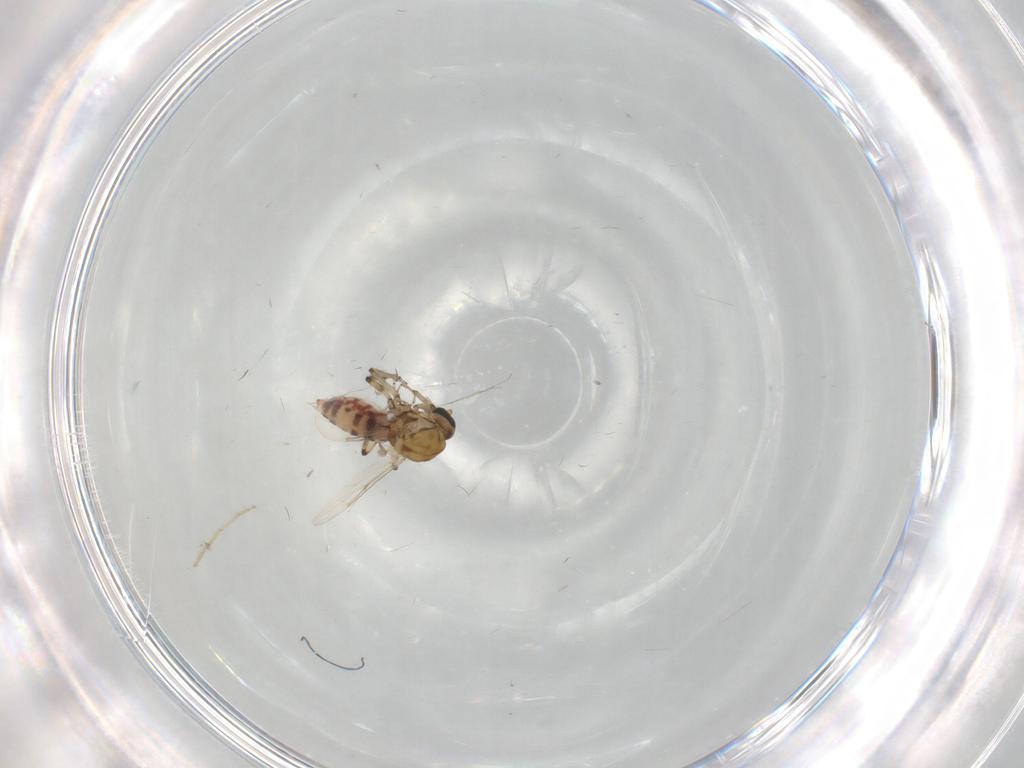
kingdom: Animalia
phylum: Arthropoda
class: Insecta
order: Diptera
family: Ceratopogonidae
